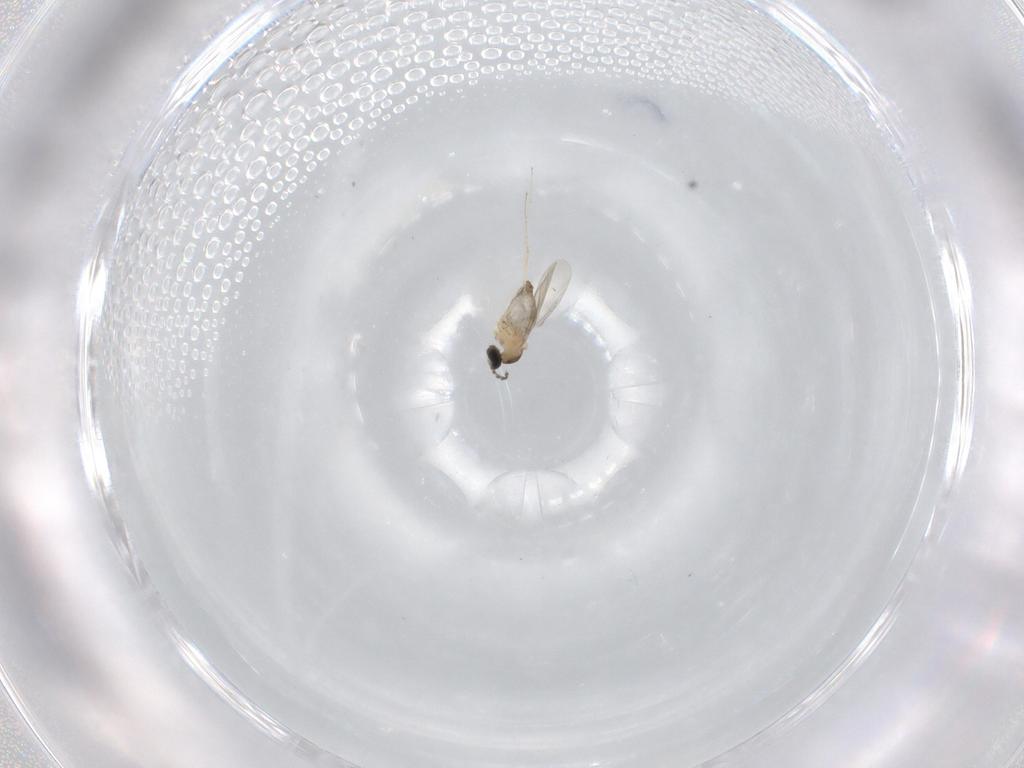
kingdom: Animalia
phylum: Arthropoda
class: Insecta
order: Diptera
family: Cecidomyiidae
